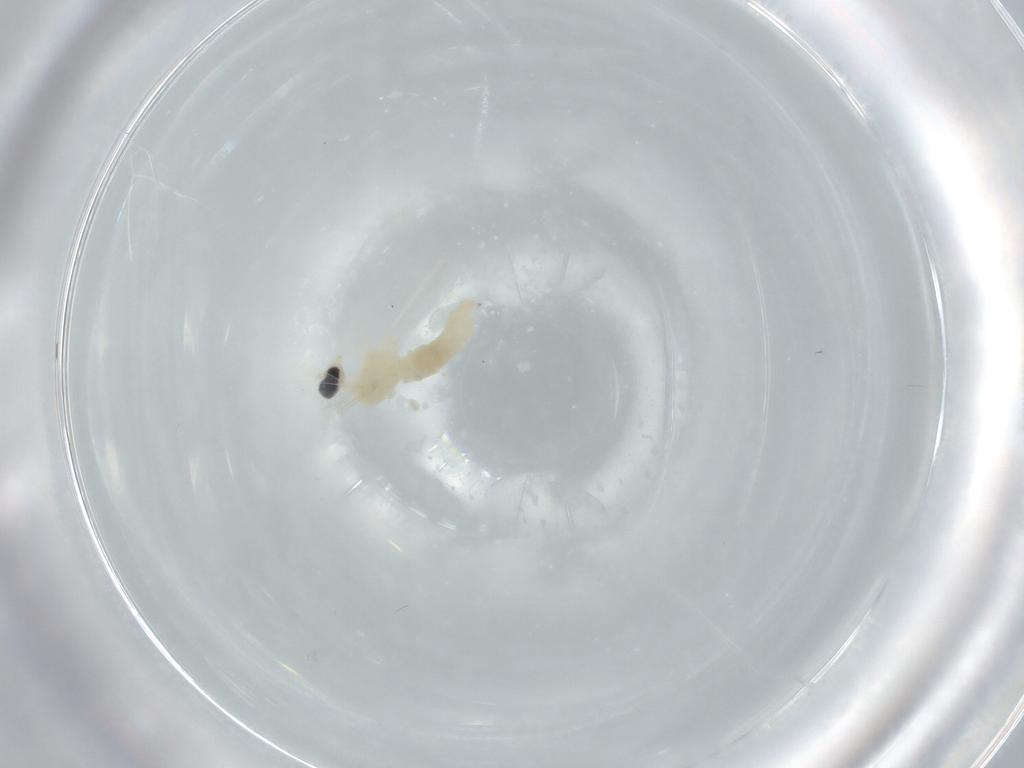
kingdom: Animalia
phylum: Arthropoda
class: Insecta
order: Diptera
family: Cecidomyiidae
